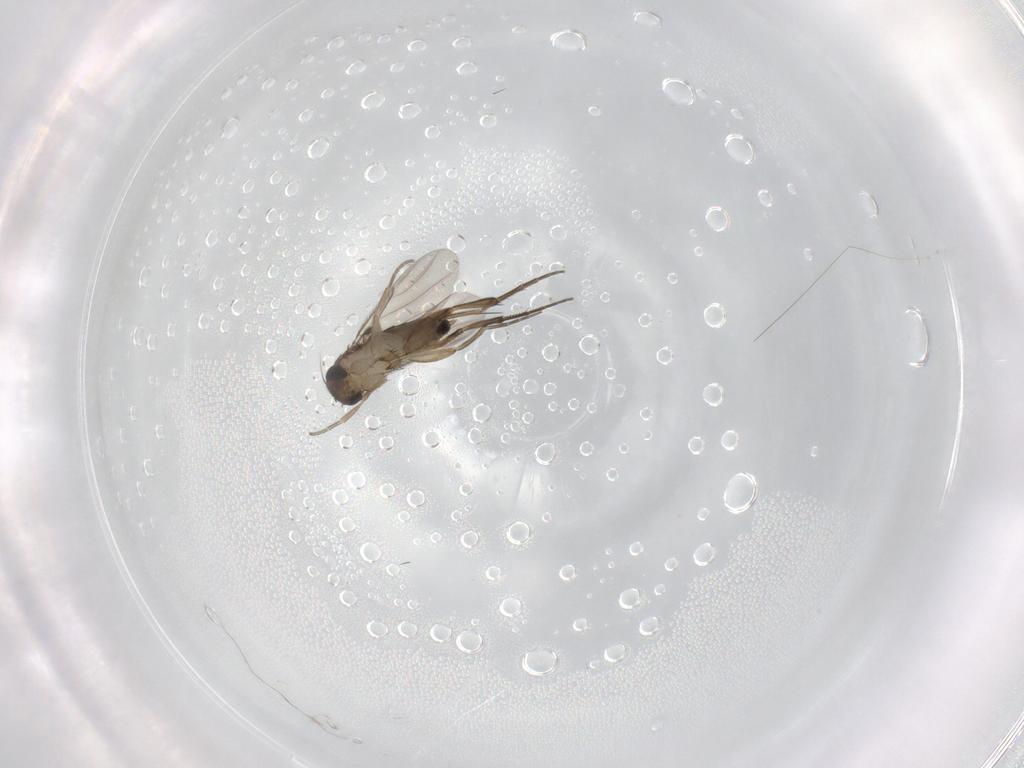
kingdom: Animalia
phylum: Arthropoda
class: Insecta
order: Diptera
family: Phoridae
